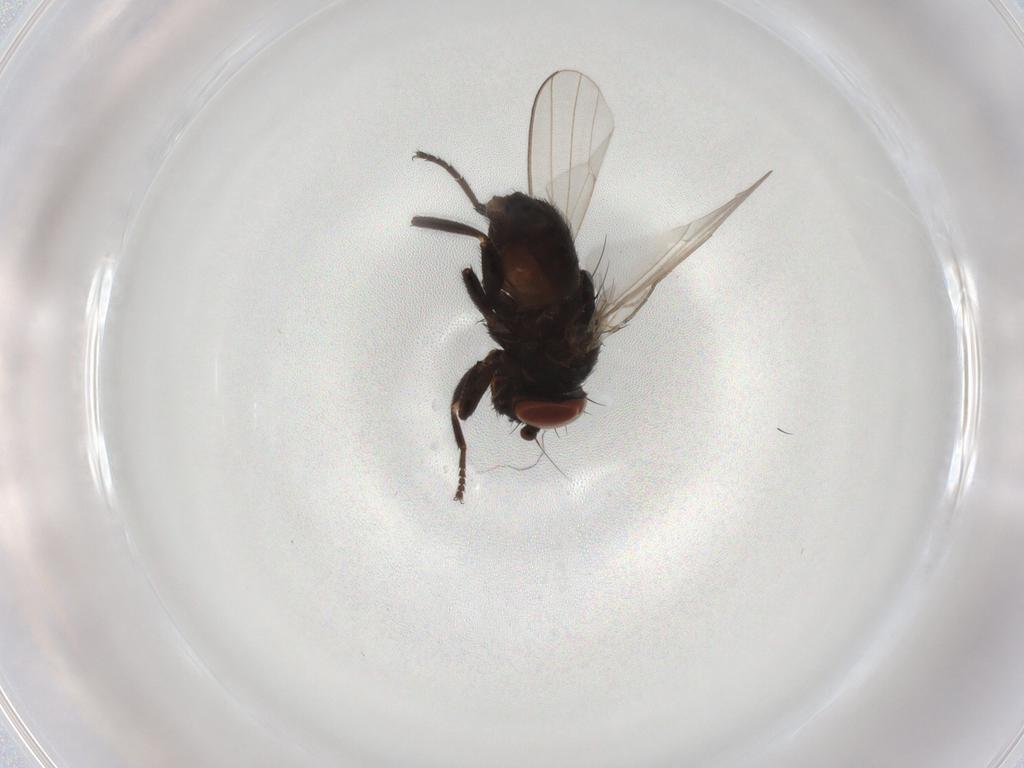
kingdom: Animalia
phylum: Arthropoda
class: Insecta
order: Diptera
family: Chloropidae
